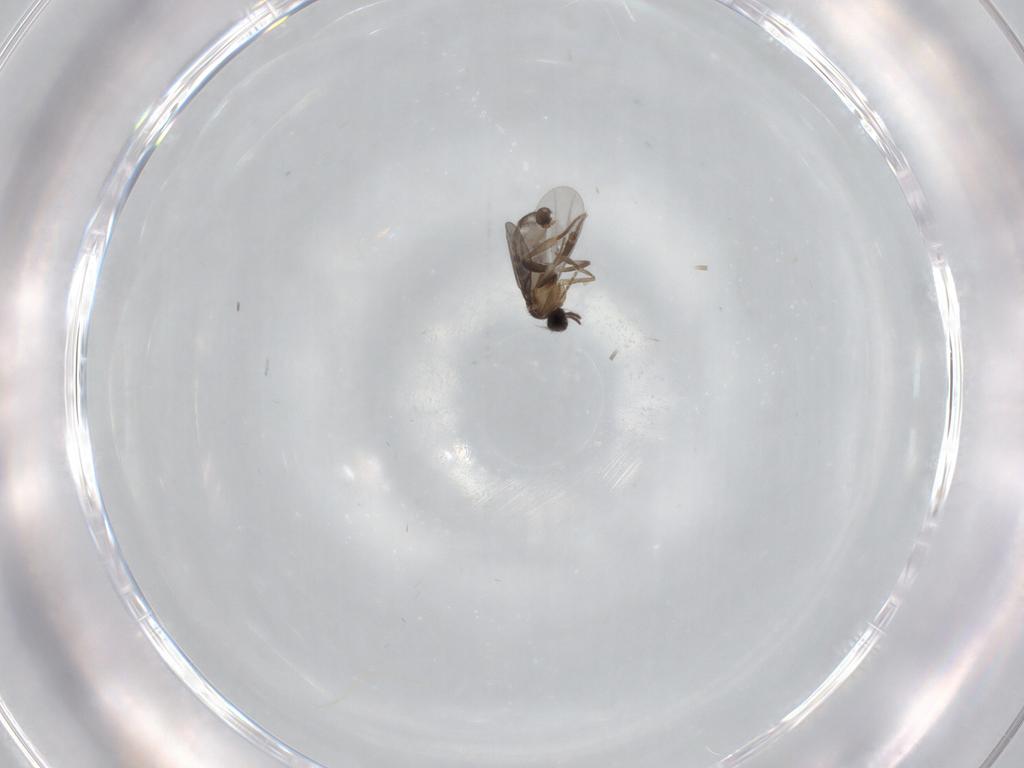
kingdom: Animalia
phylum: Arthropoda
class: Insecta
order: Diptera
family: Phoridae
